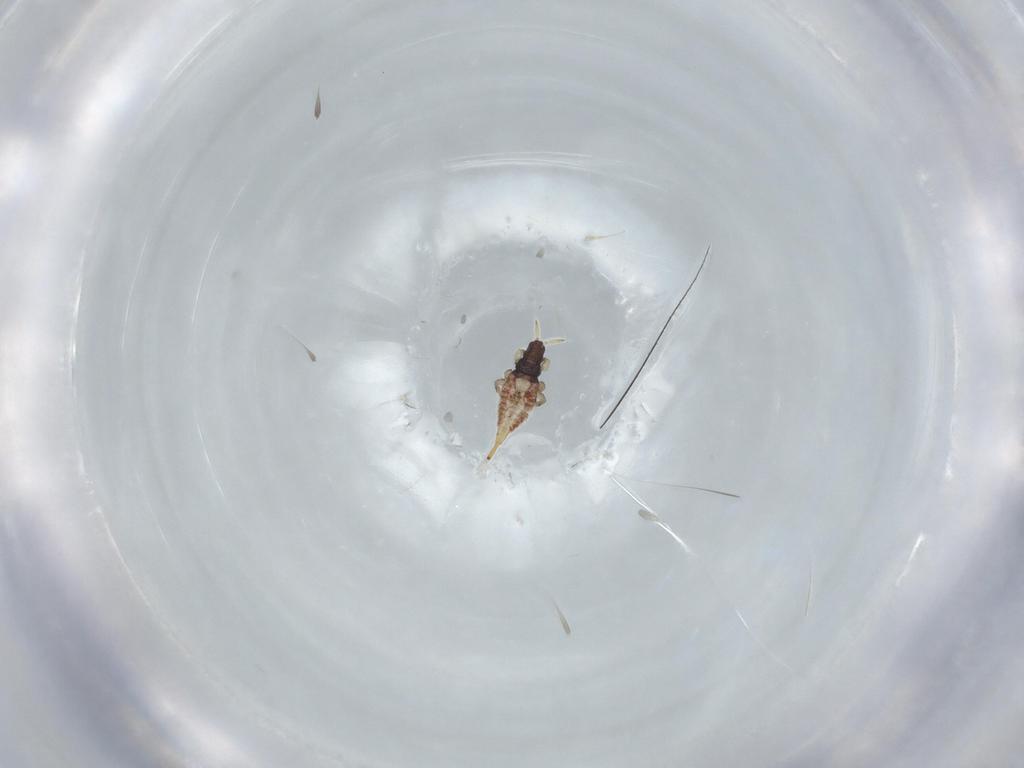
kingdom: Animalia
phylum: Arthropoda
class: Insecta
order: Thysanoptera
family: Phlaeothripidae
